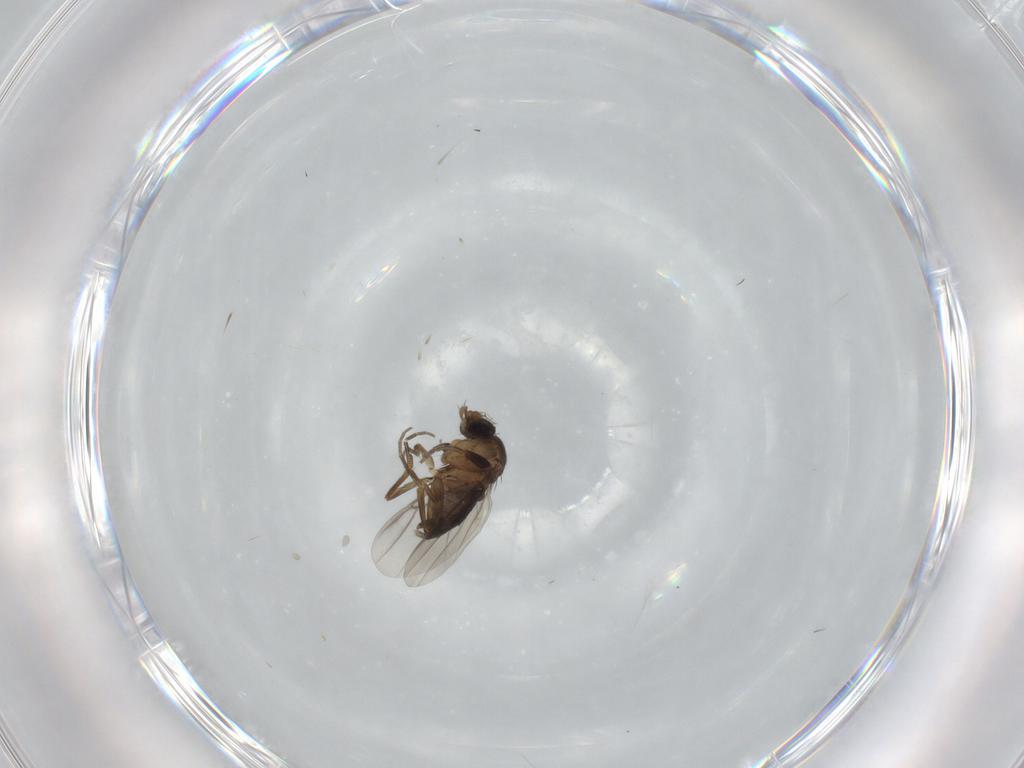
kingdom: Animalia
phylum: Arthropoda
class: Insecta
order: Diptera
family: Phoridae
